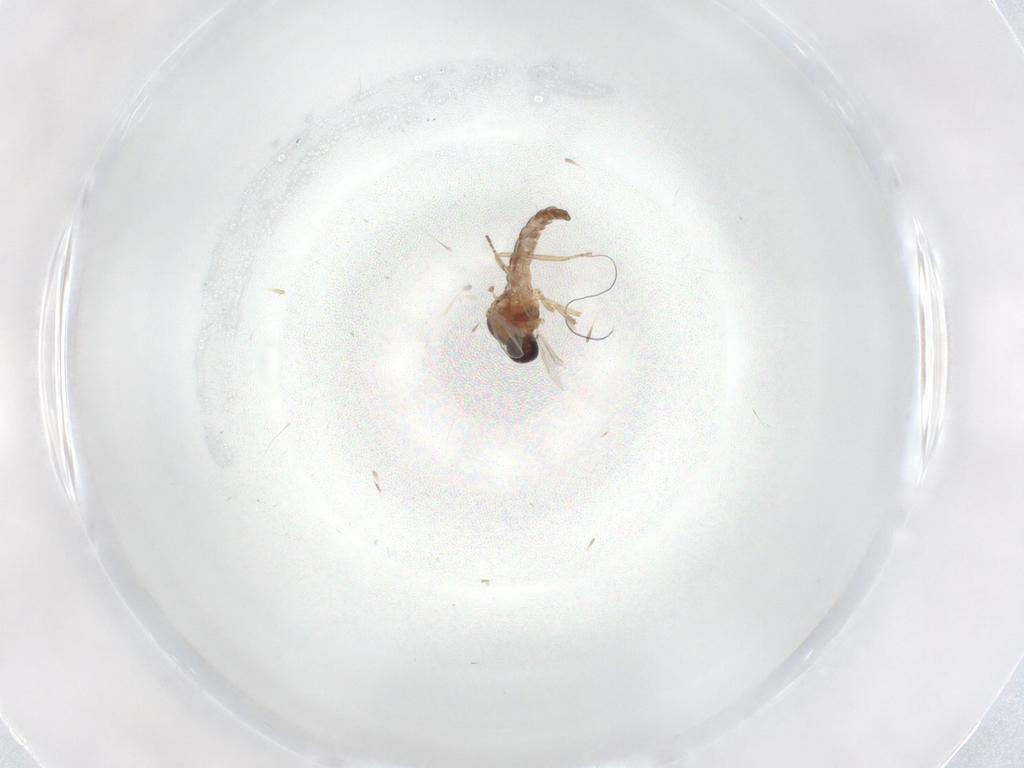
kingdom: Animalia
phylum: Arthropoda
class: Insecta
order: Diptera
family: Ceratopogonidae
